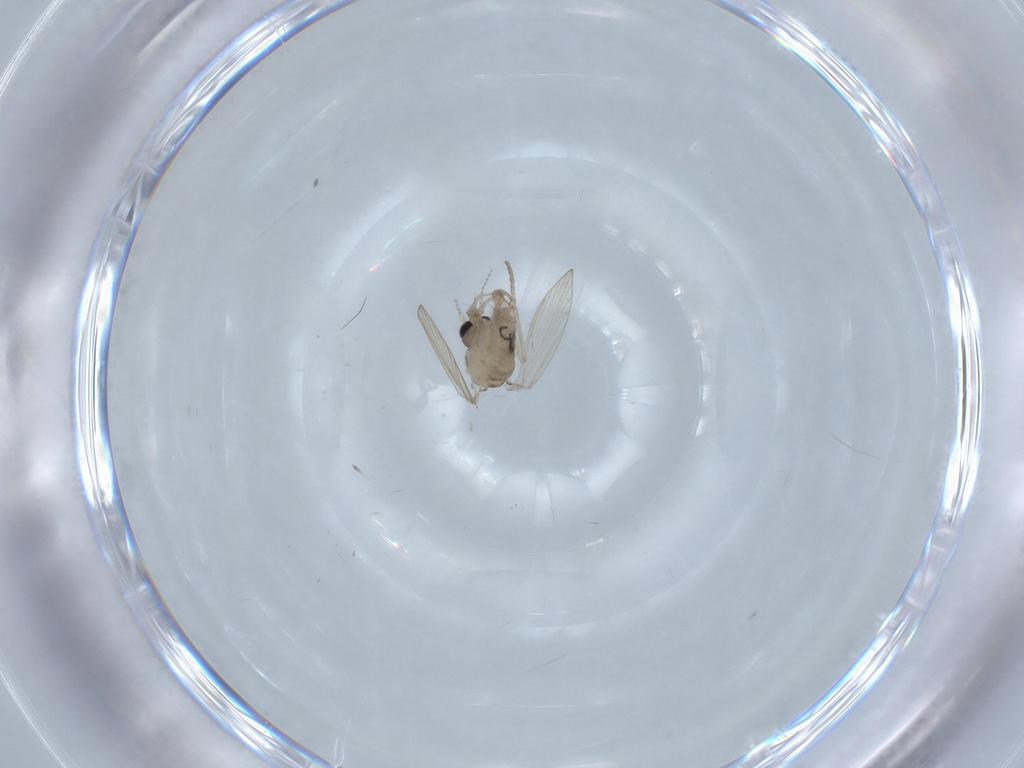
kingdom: Animalia
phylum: Arthropoda
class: Insecta
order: Diptera
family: Psychodidae
